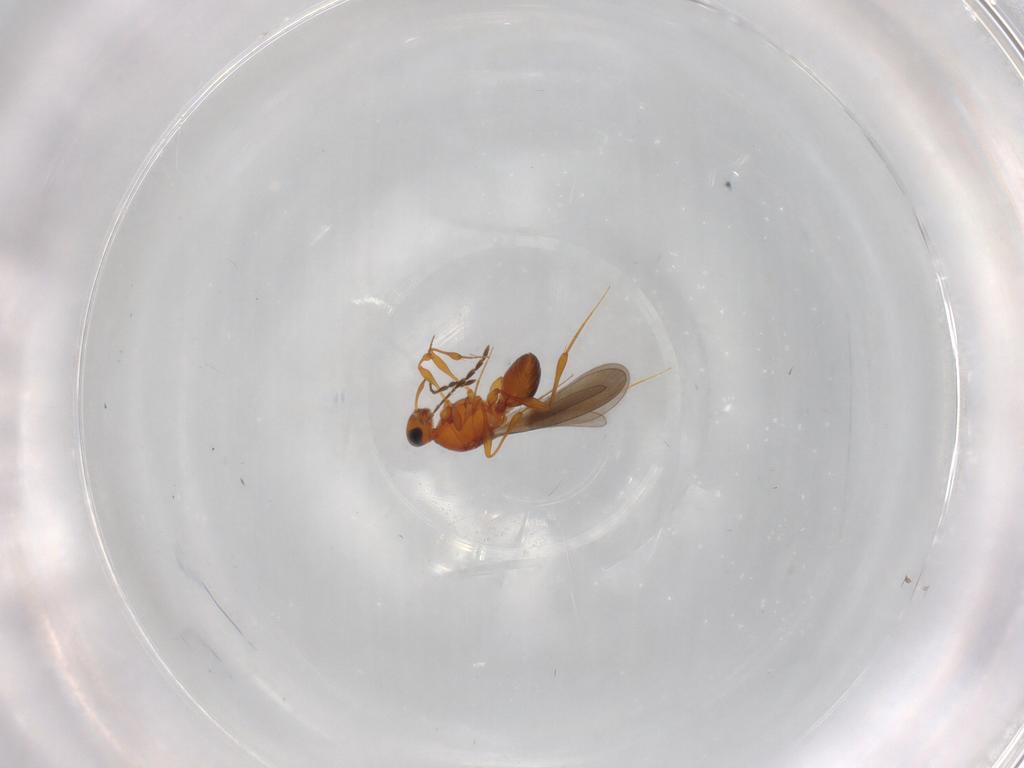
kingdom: Animalia
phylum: Arthropoda
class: Insecta
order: Hymenoptera
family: Platygastridae
